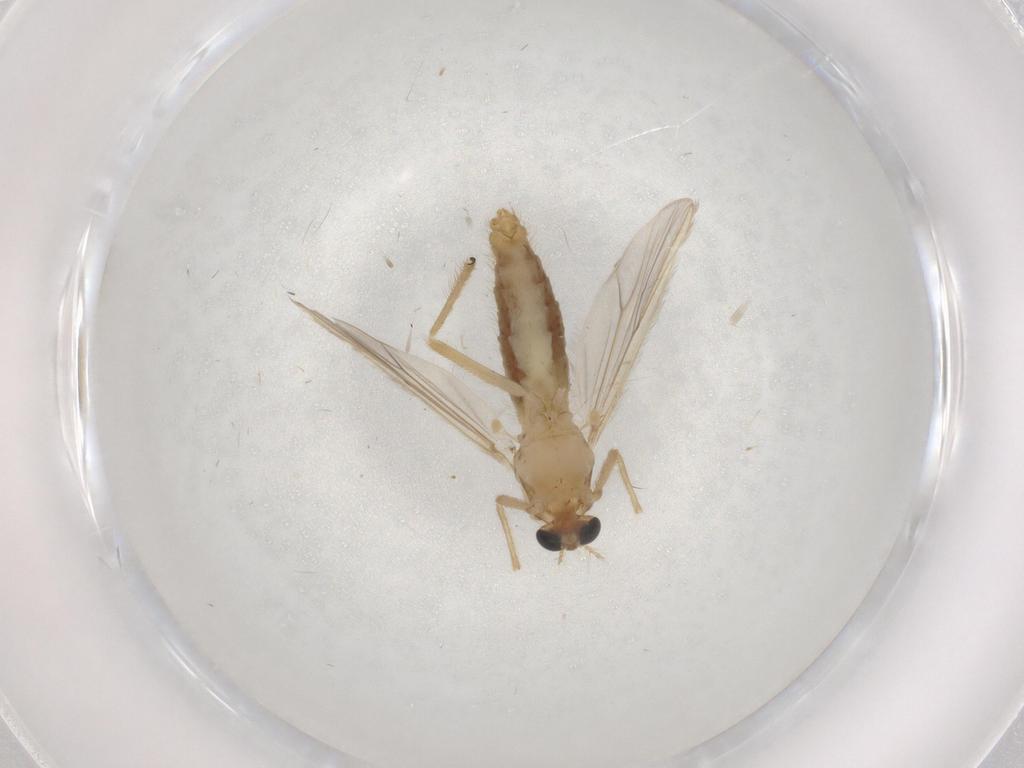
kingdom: Animalia
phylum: Arthropoda
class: Insecta
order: Diptera
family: Chironomidae
